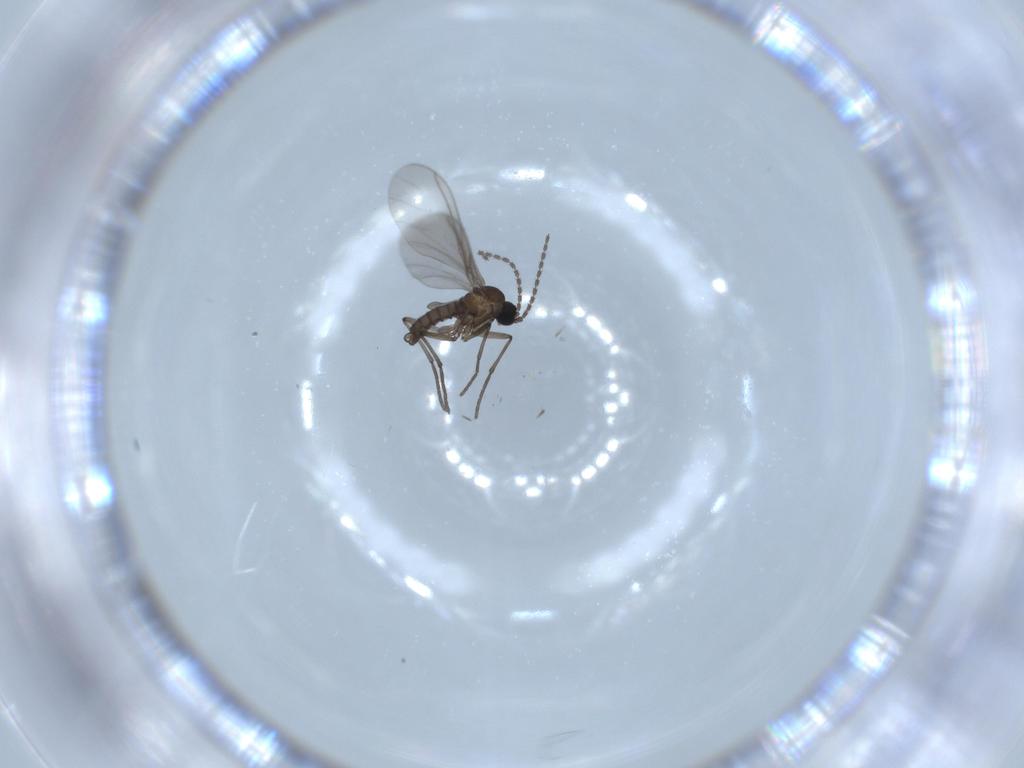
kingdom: Animalia
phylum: Arthropoda
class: Insecta
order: Diptera
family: Sciaridae
